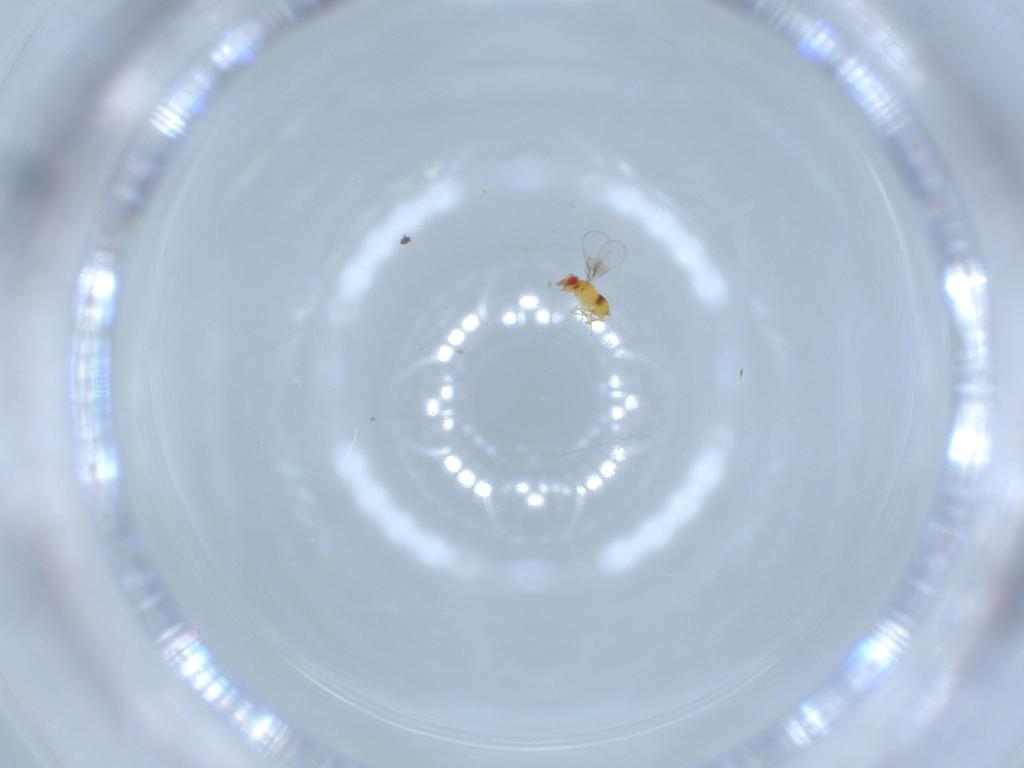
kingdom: Animalia
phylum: Arthropoda
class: Insecta
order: Hymenoptera
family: Trichogrammatidae
